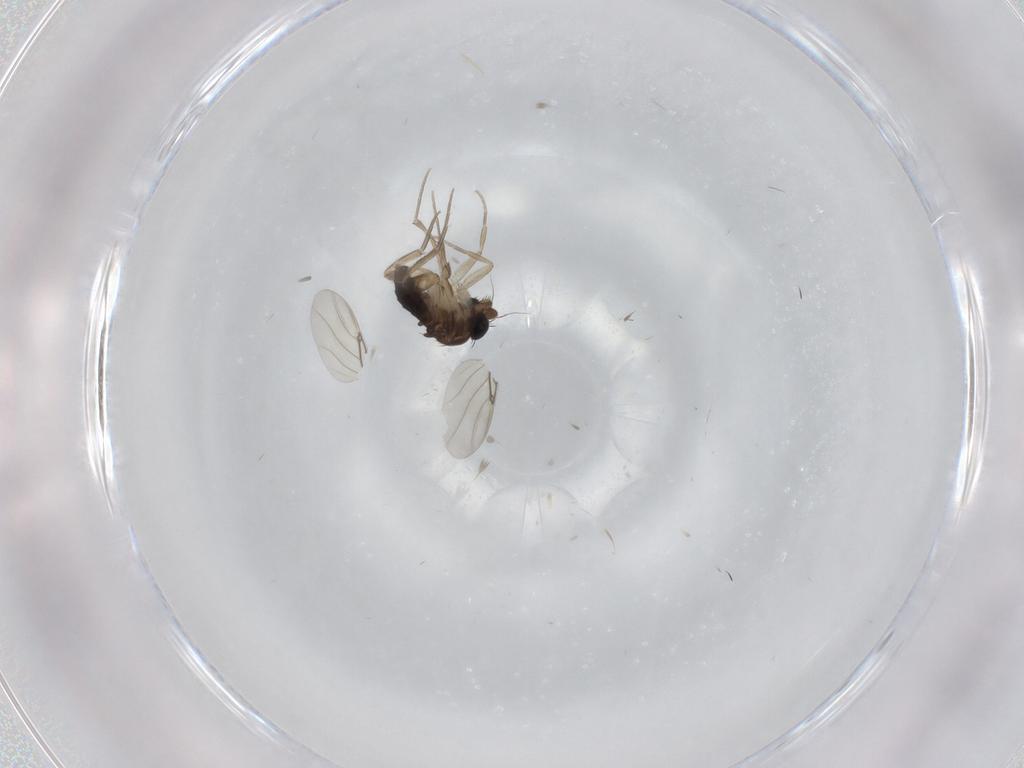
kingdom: Animalia
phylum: Arthropoda
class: Insecta
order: Diptera
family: Phoridae
